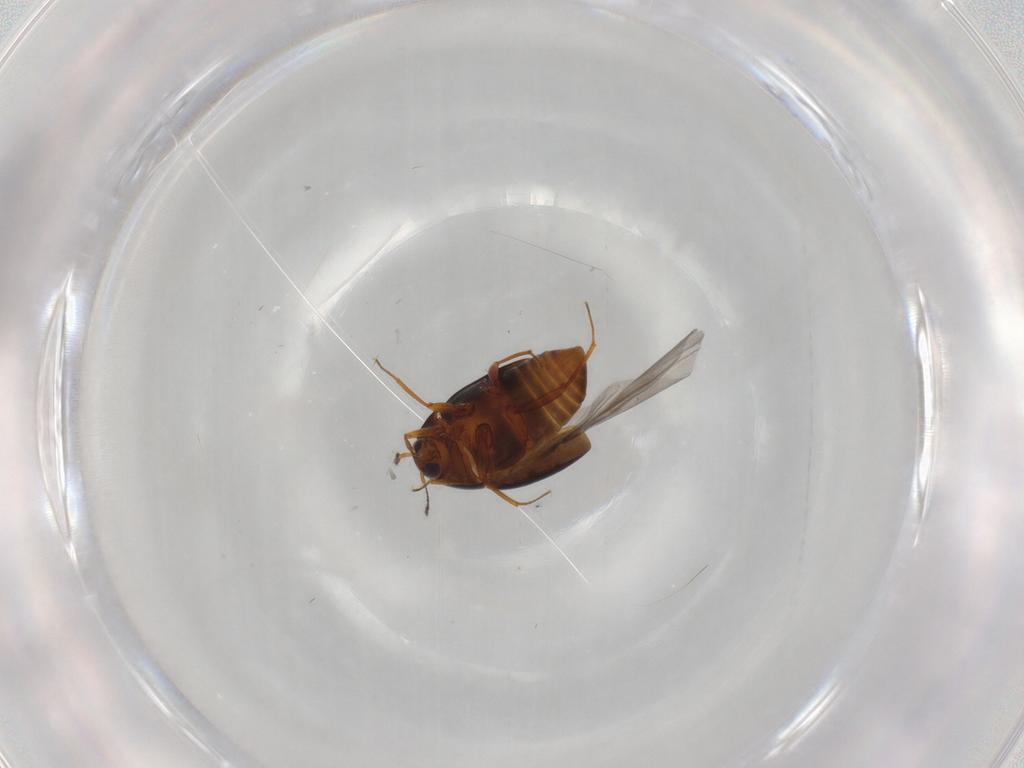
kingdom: Animalia
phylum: Arthropoda
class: Insecta
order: Coleoptera
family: Staphylinidae
